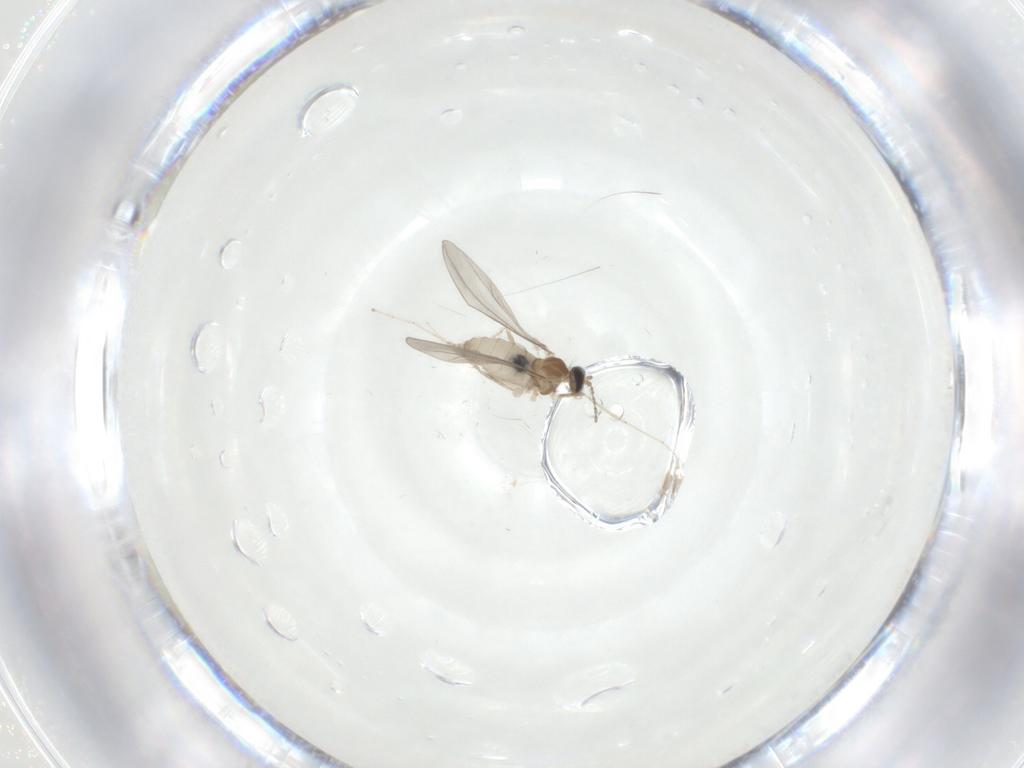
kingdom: Animalia
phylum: Arthropoda
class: Insecta
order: Diptera
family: Cecidomyiidae
